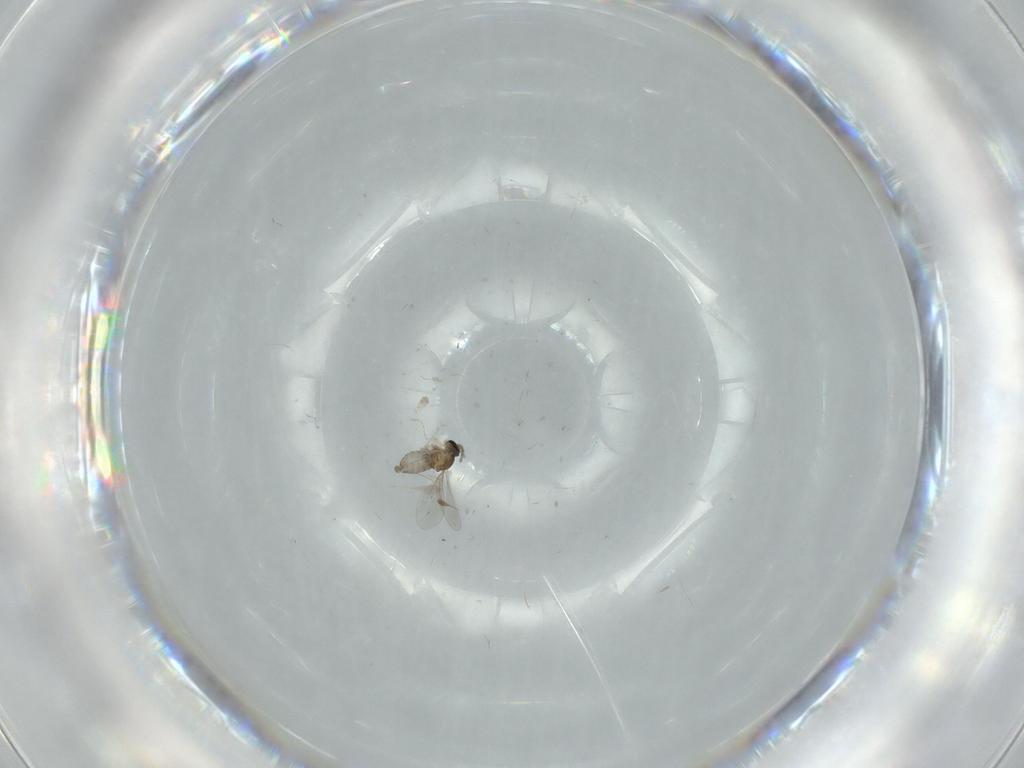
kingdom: Animalia
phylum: Arthropoda
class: Insecta
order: Diptera
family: Cecidomyiidae
